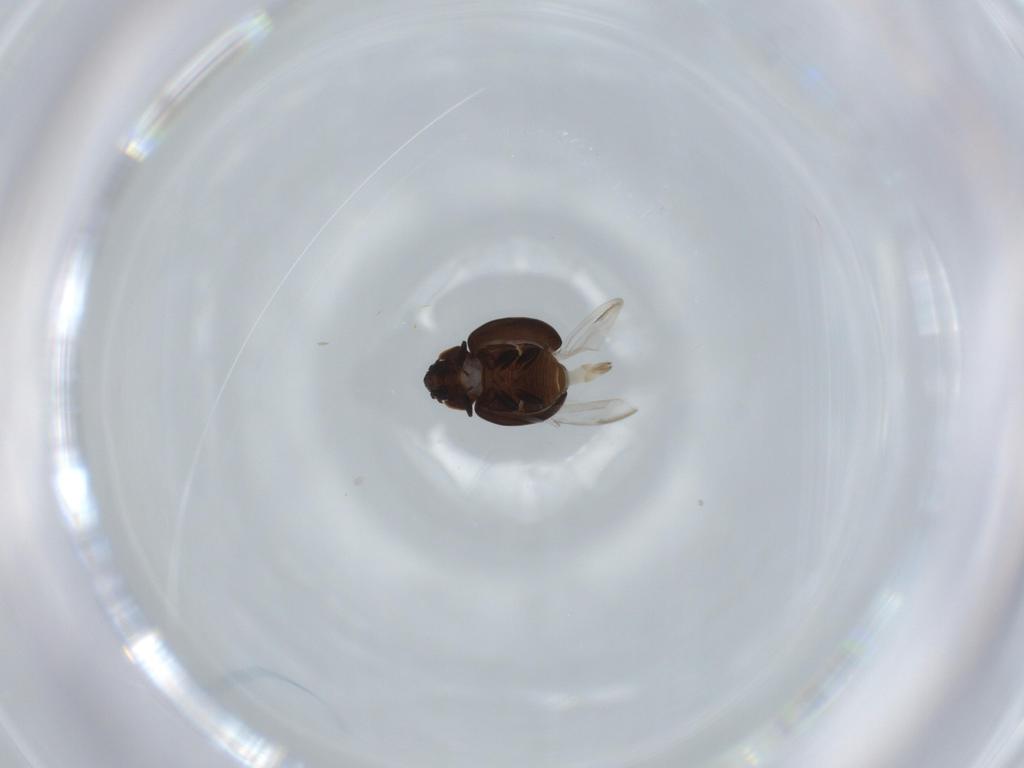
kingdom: Animalia
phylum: Arthropoda
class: Insecta
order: Coleoptera
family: Coccinellidae
